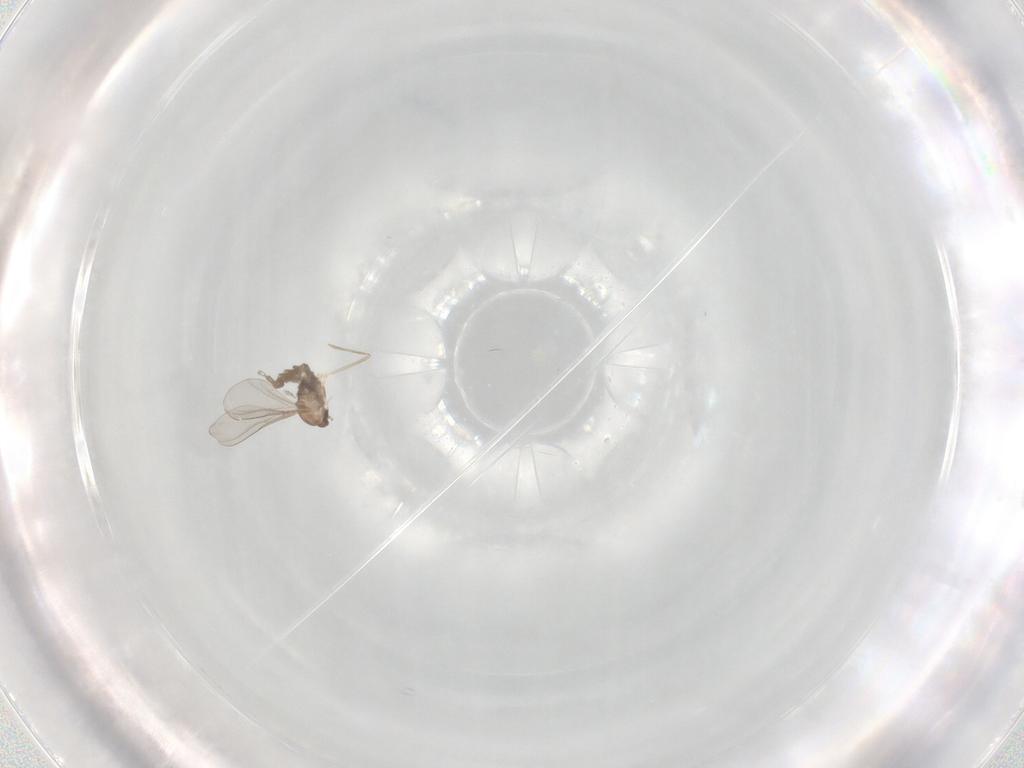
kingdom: Animalia
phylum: Arthropoda
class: Insecta
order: Diptera
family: Cecidomyiidae
